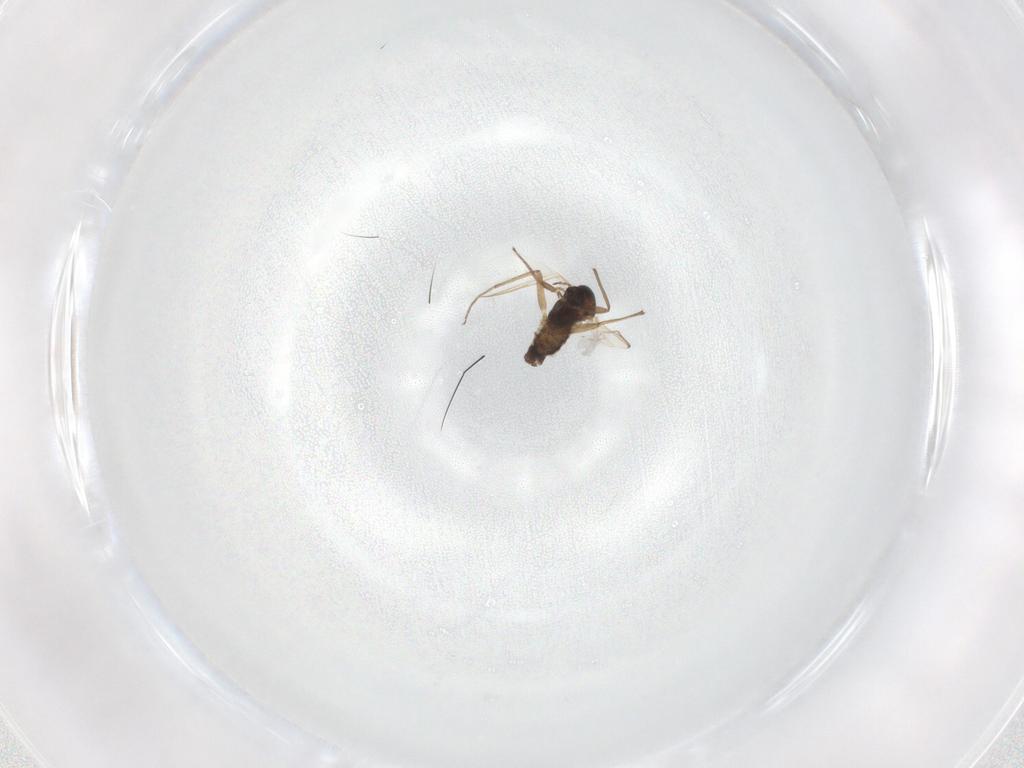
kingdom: Animalia
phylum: Arthropoda
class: Insecta
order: Diptera
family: Chironomidae
